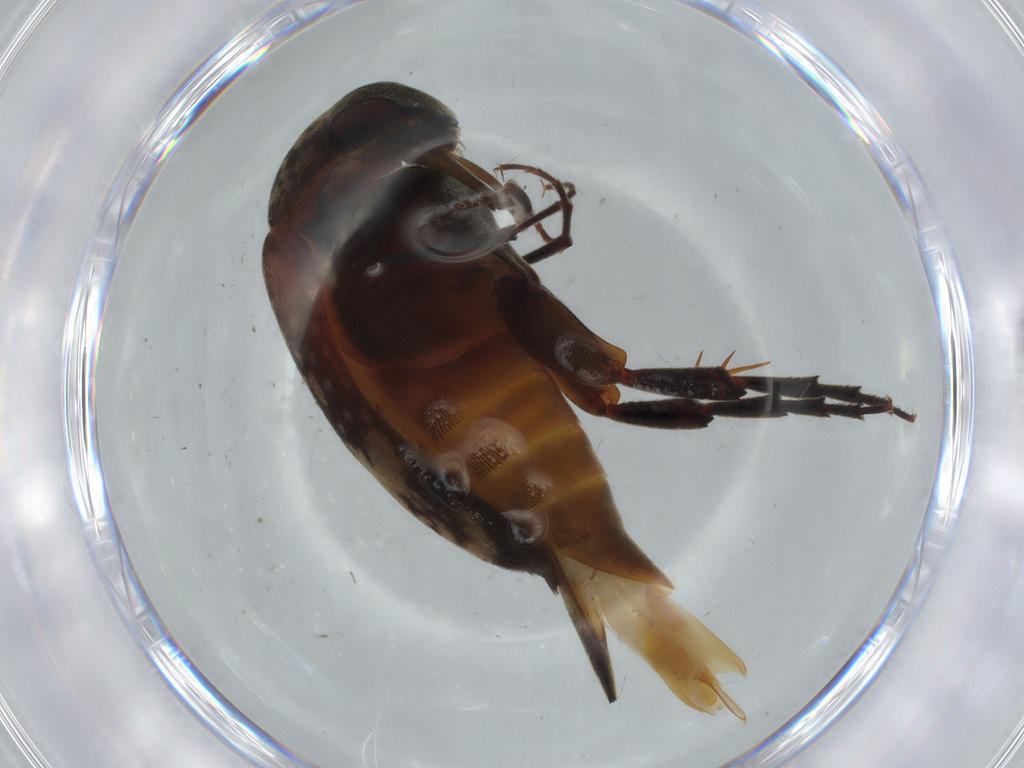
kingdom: Animalia
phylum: Arthropoda
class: Insecta
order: Coleoptera
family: Mordellidae
